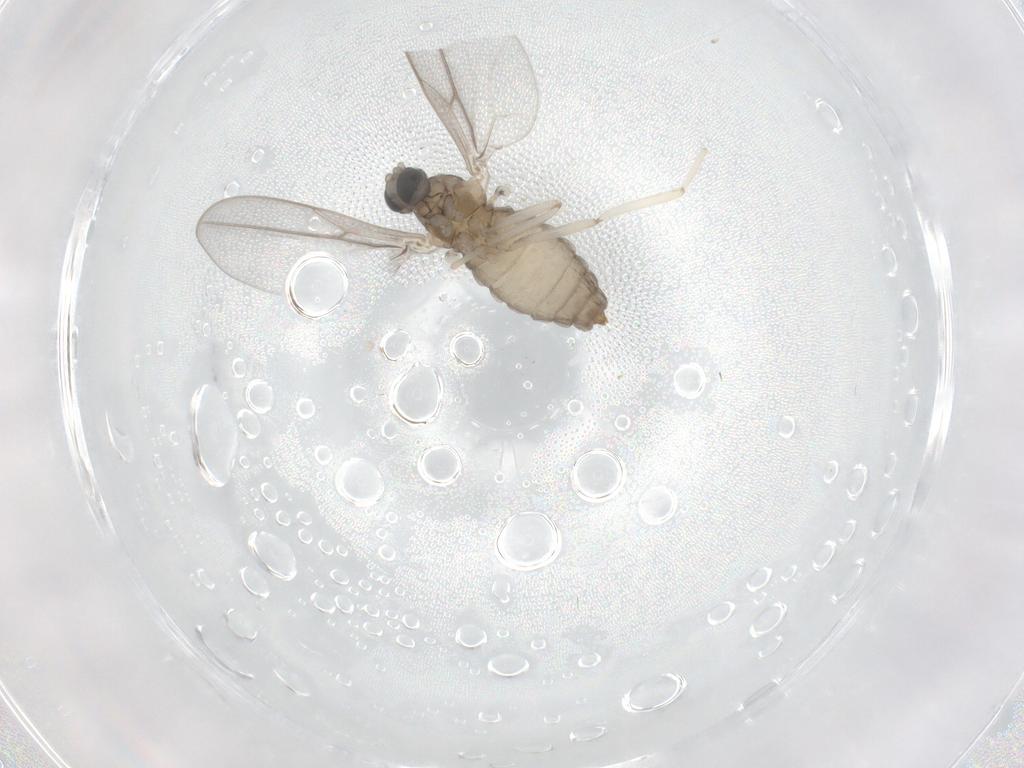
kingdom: Animalia
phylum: Arthropoda
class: Insecta
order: Diptera
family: Cecidomyiidae
